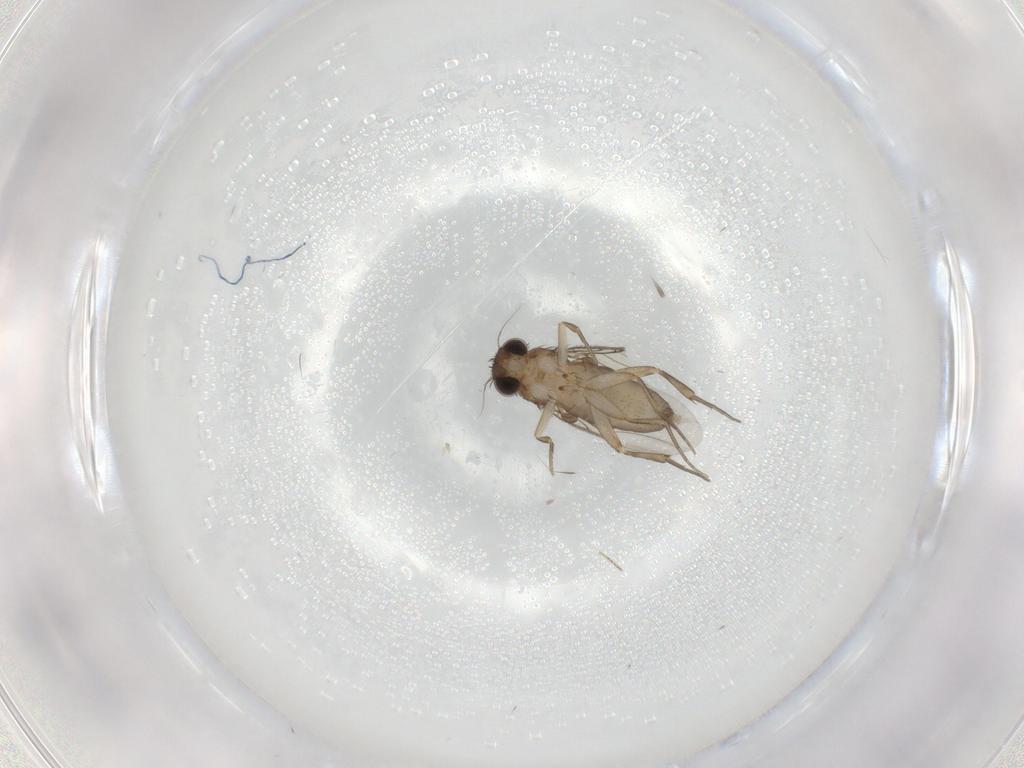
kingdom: Animalia
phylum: Arthropoda
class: Insecta
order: Diptera
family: Phoridae
